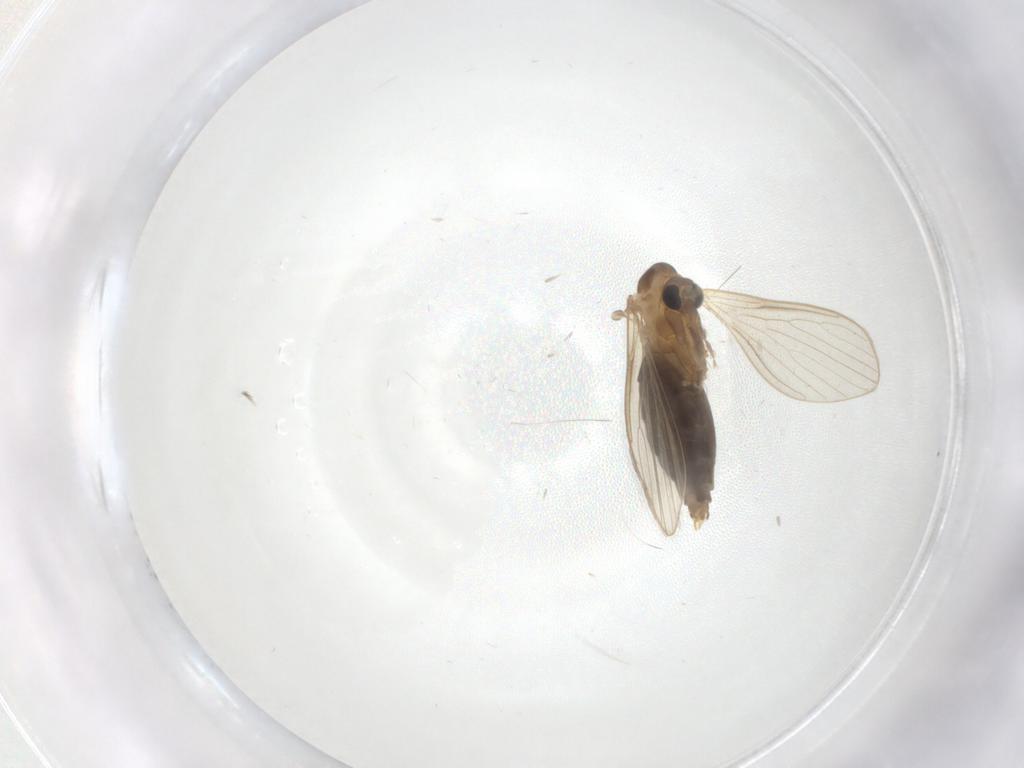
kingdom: Animalia
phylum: Arthropoda
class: Insecta
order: Diptera
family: Psychodidae
